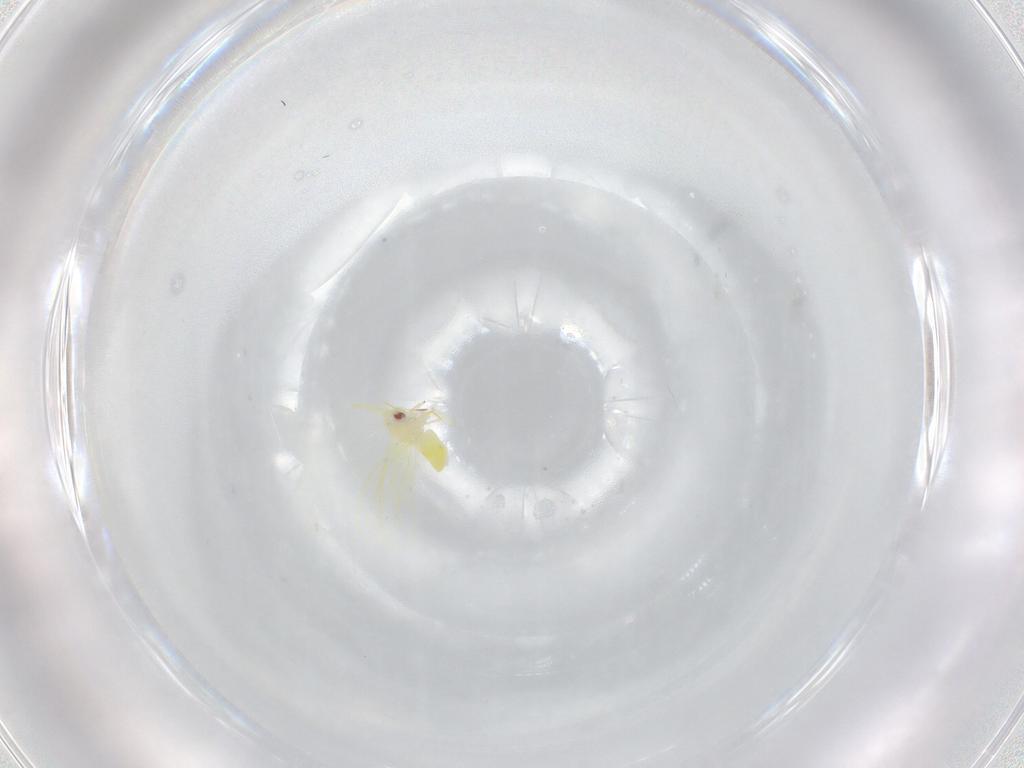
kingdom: Animalia
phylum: Arthropoda
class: Insecta
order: Hemiptera
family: Aleyrodidae
